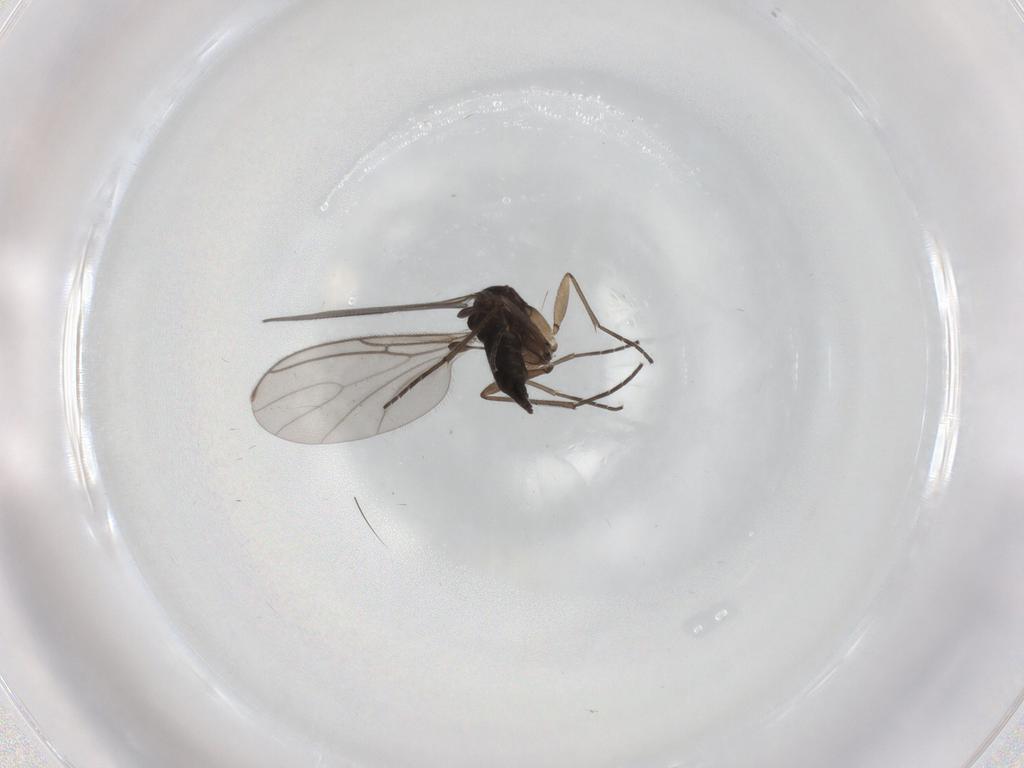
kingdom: Animalia
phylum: Arthropoda
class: Insecta
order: Diptera
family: Sciaridae
